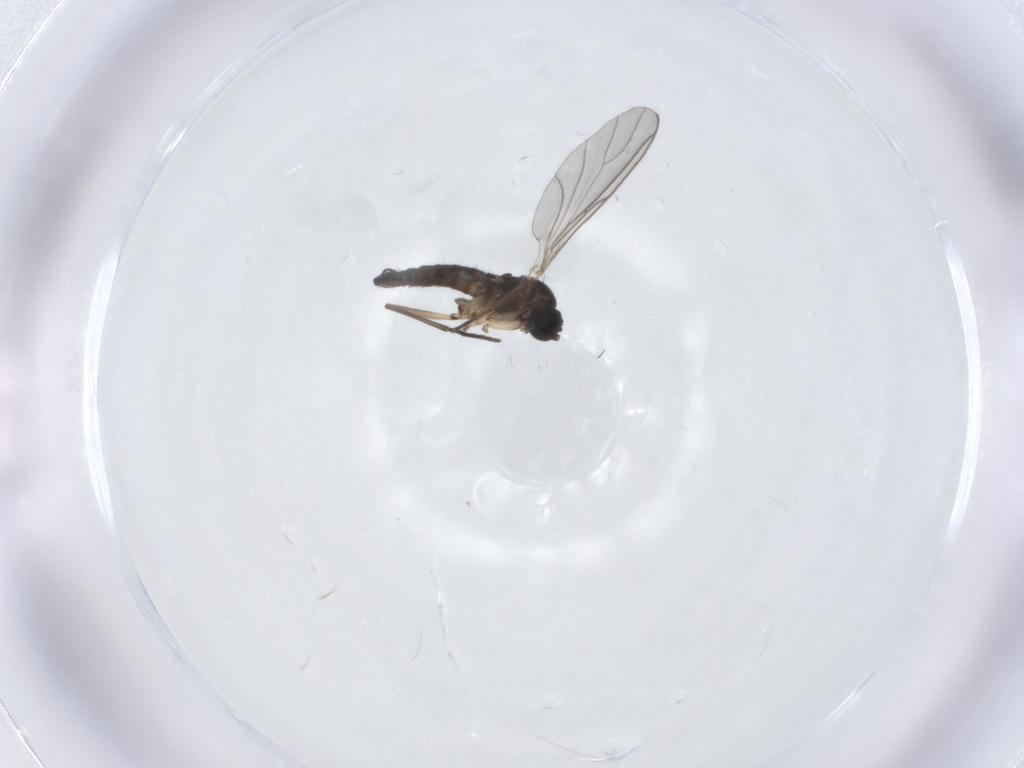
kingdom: Animalia
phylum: Arthropoda
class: Insecta
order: Diptera
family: Sciaridae
